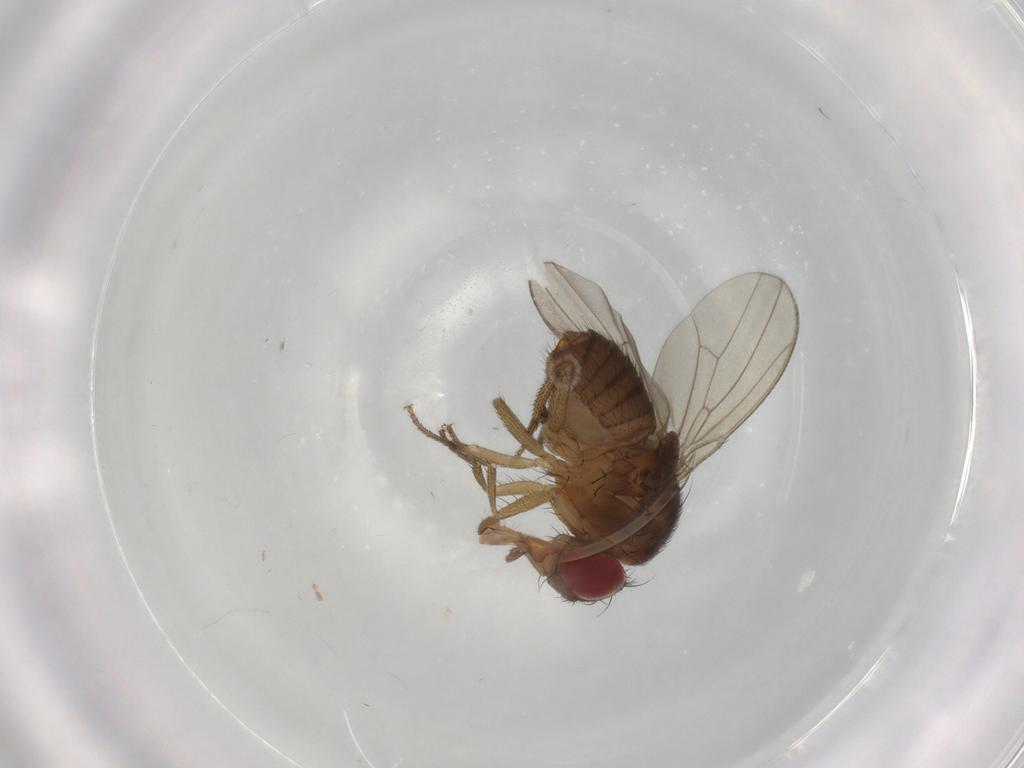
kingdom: Animalia
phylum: Arthropoda
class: Insecta
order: Diptera
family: Drosophilidae
